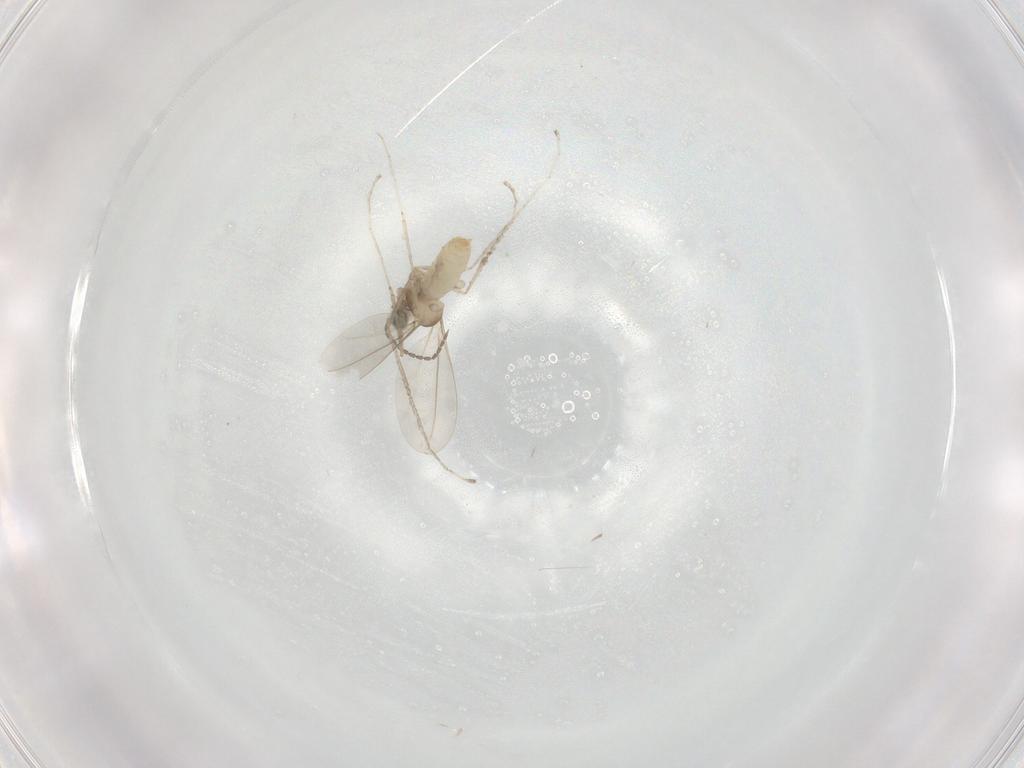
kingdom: Animalia
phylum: Arthropoda
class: Insecta
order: Diptera
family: Cecidomyiidae
